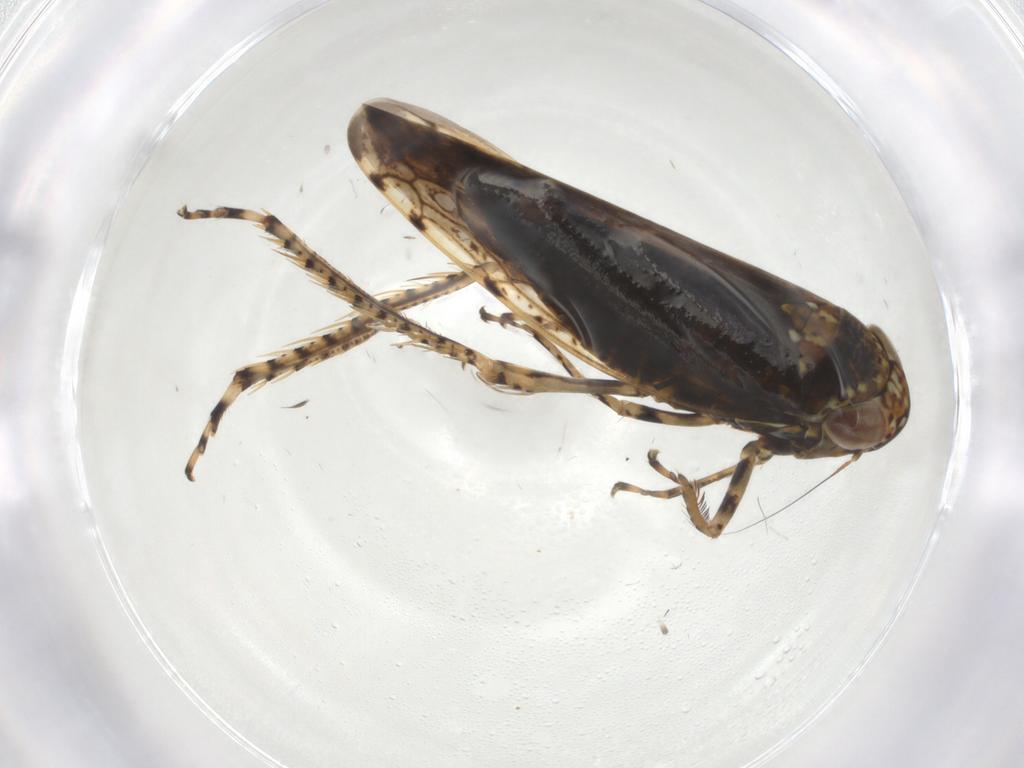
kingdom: Animalia
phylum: Arthropoda
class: Insecta
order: Hemiptera
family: Cicadellidae
